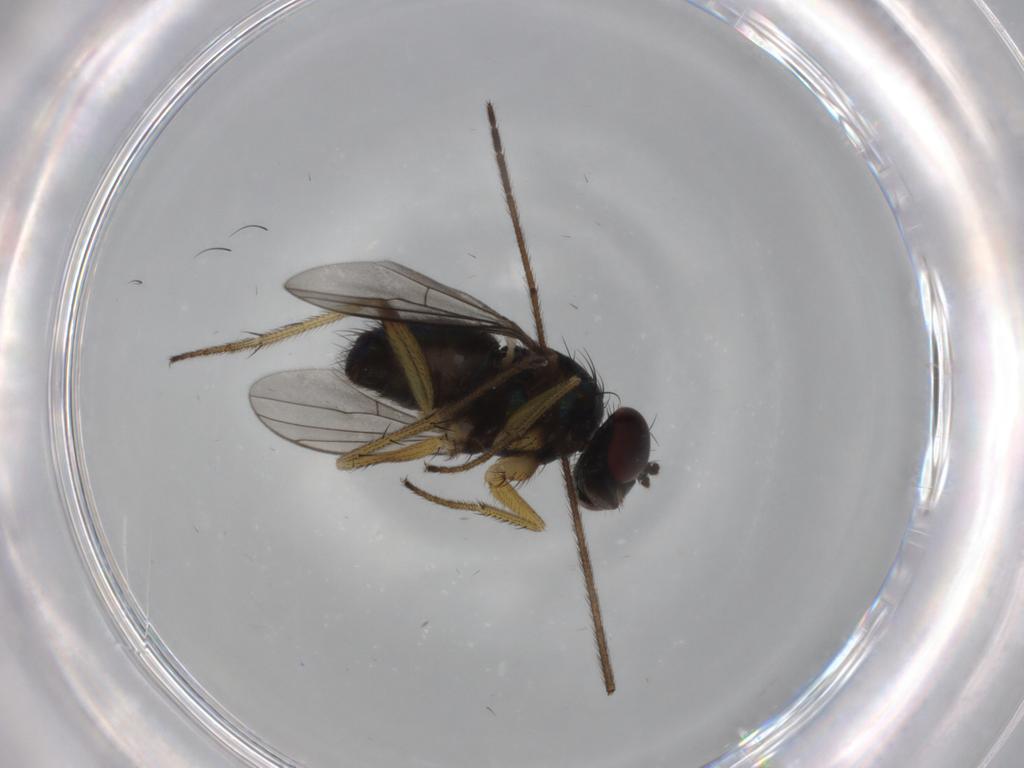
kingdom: Animalia
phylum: Arthropoda
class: Insecta
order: Diptera
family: Dolichopodidae
